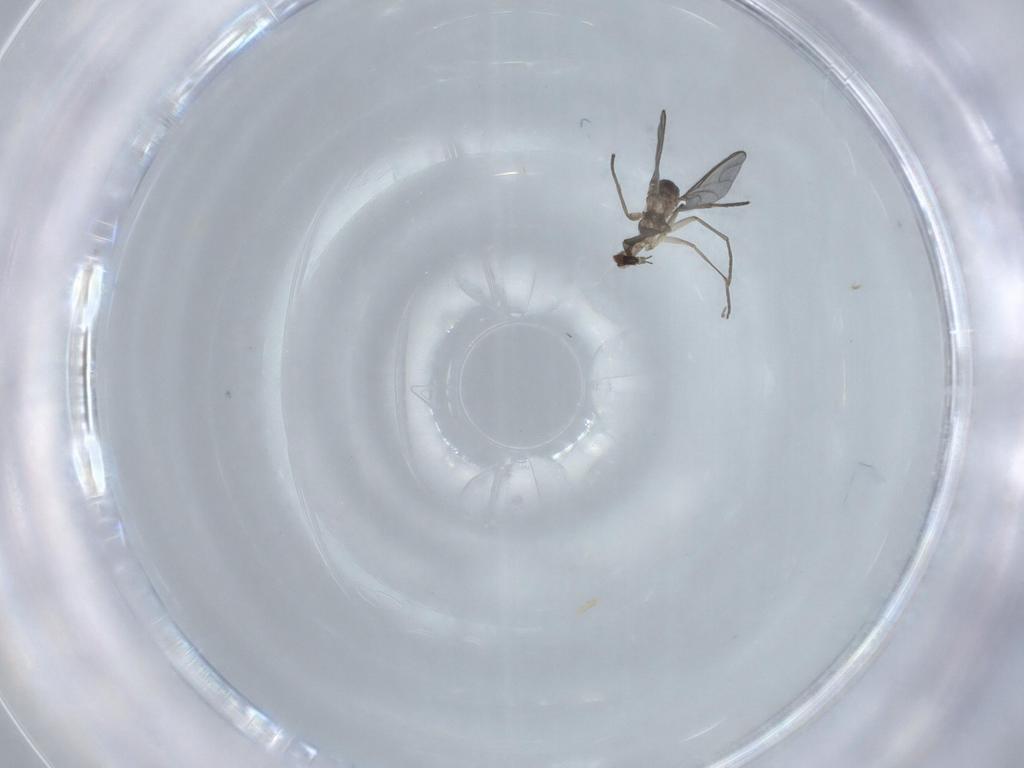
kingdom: Animalia
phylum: Arthropoda
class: Insecta
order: Diptera
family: Sciaridae
